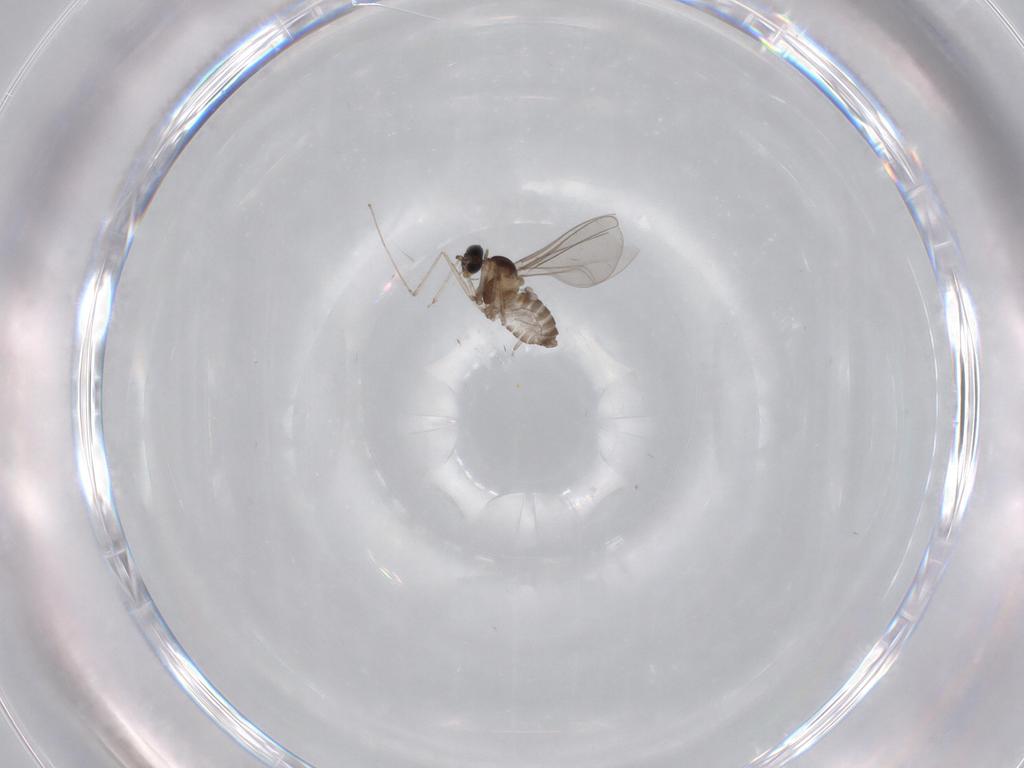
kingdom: Animalia
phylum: Arthropoda
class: Insecta
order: Diptera
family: Cecidomyiidae
